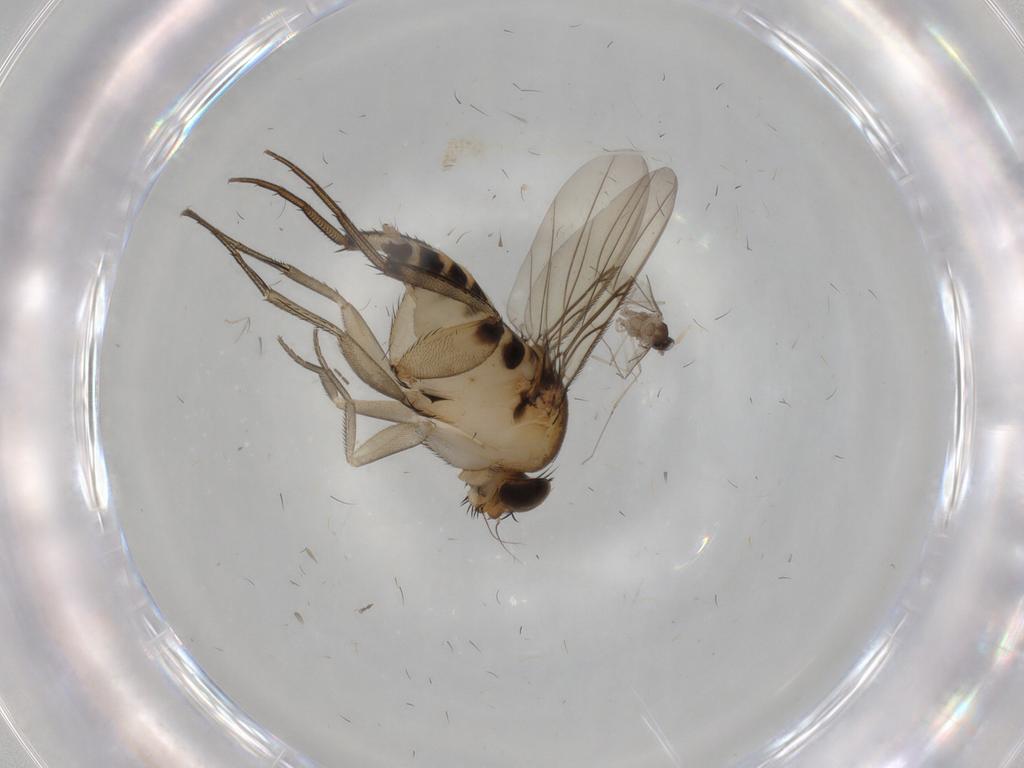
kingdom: Animalia
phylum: Arthropoda
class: Insecta
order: Diptera
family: Phoridae
